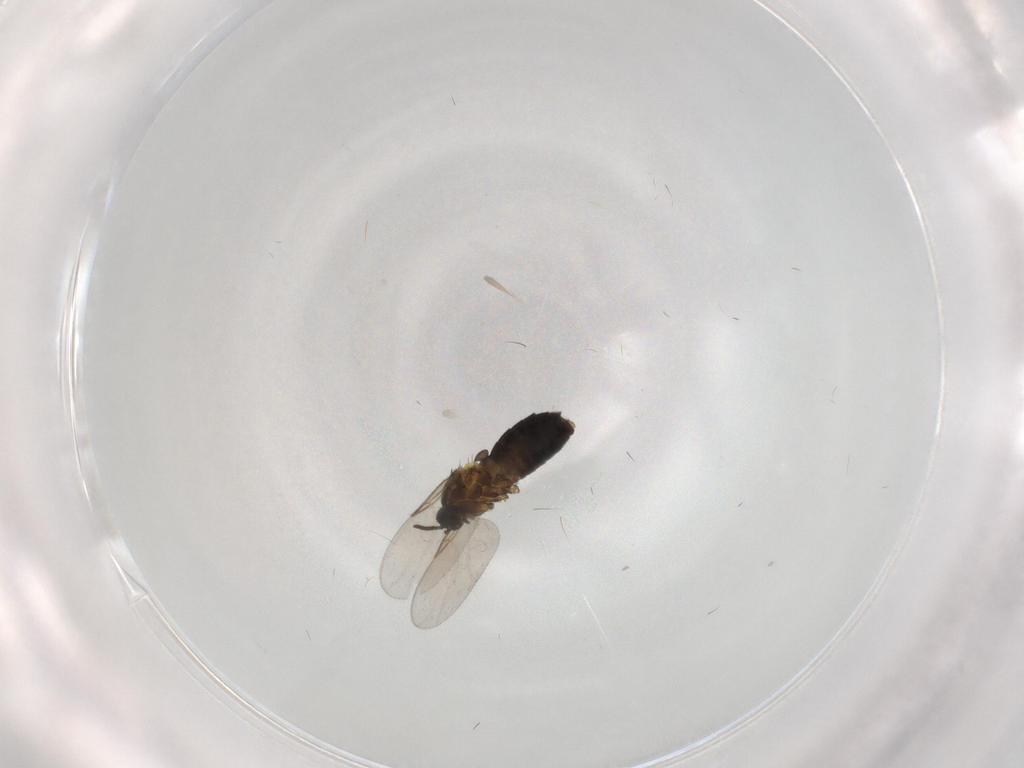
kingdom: Animalia
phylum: Arthropoda
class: Insecta
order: Diptera
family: Scatopsidae
